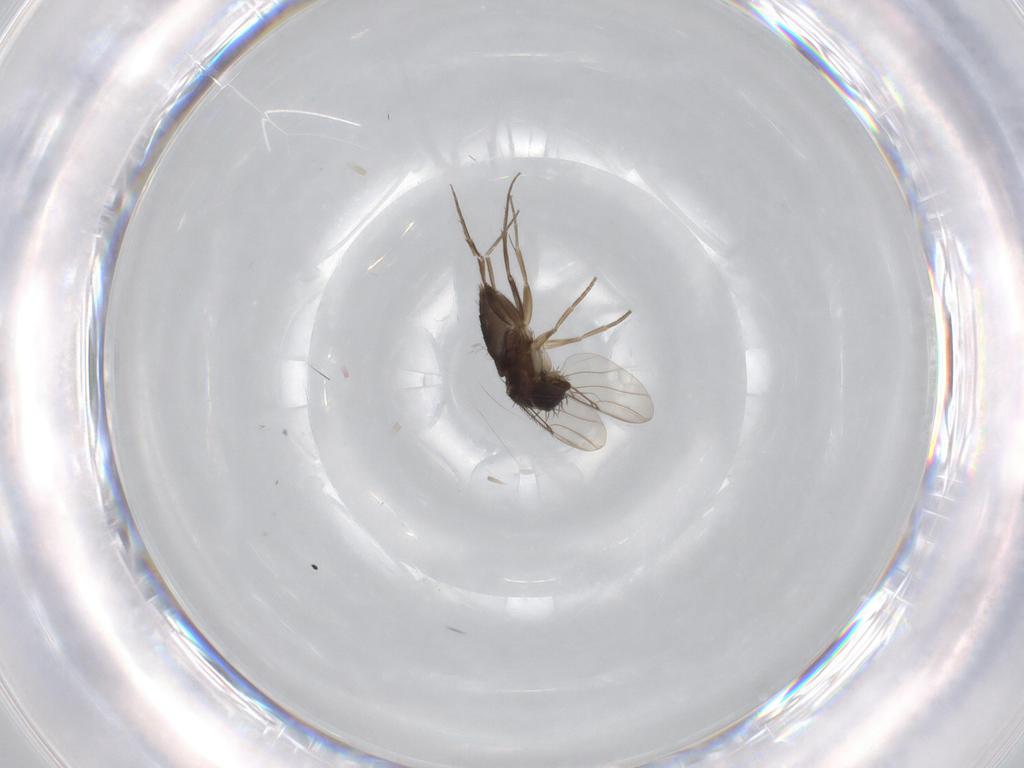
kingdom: Animalia
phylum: Arthropoda
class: Insecta
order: Diptera
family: Phoridae
